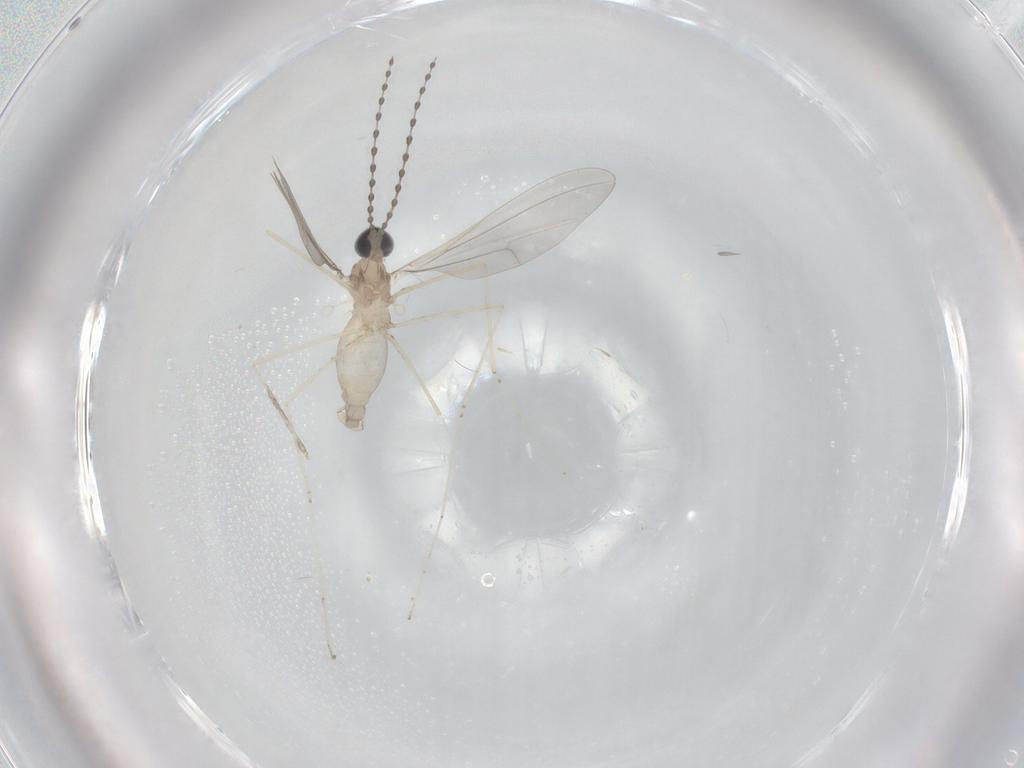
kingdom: Animalia
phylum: Arthropoda
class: Insecta
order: Diptera
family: Cecidomyiidae
